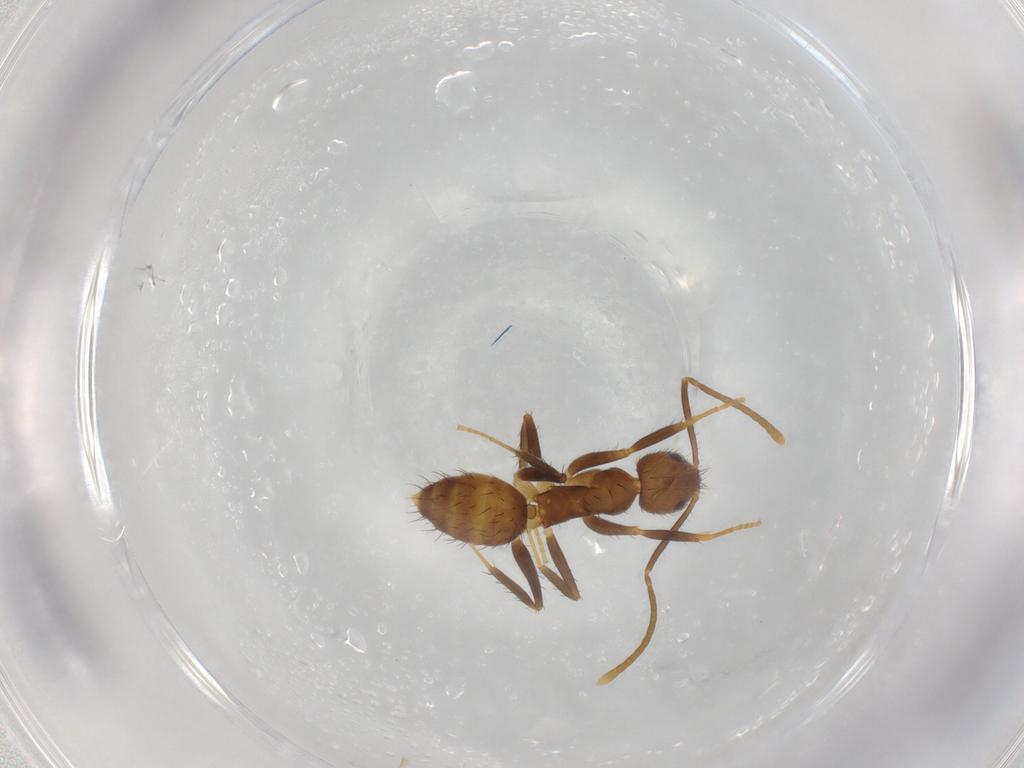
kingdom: Animalia
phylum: Arthropoda
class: Insecta
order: Hymenoptera
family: Formicidae
